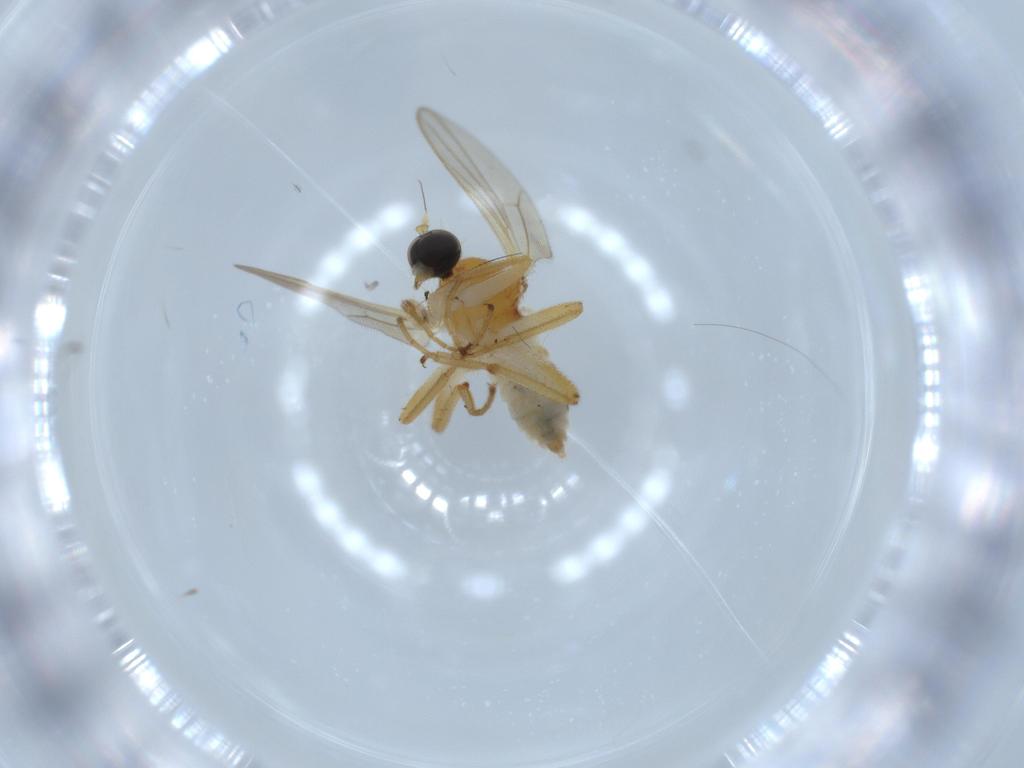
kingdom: Animalia
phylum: Arthropoda
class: Insecta
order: Diptera
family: Hybotidae
